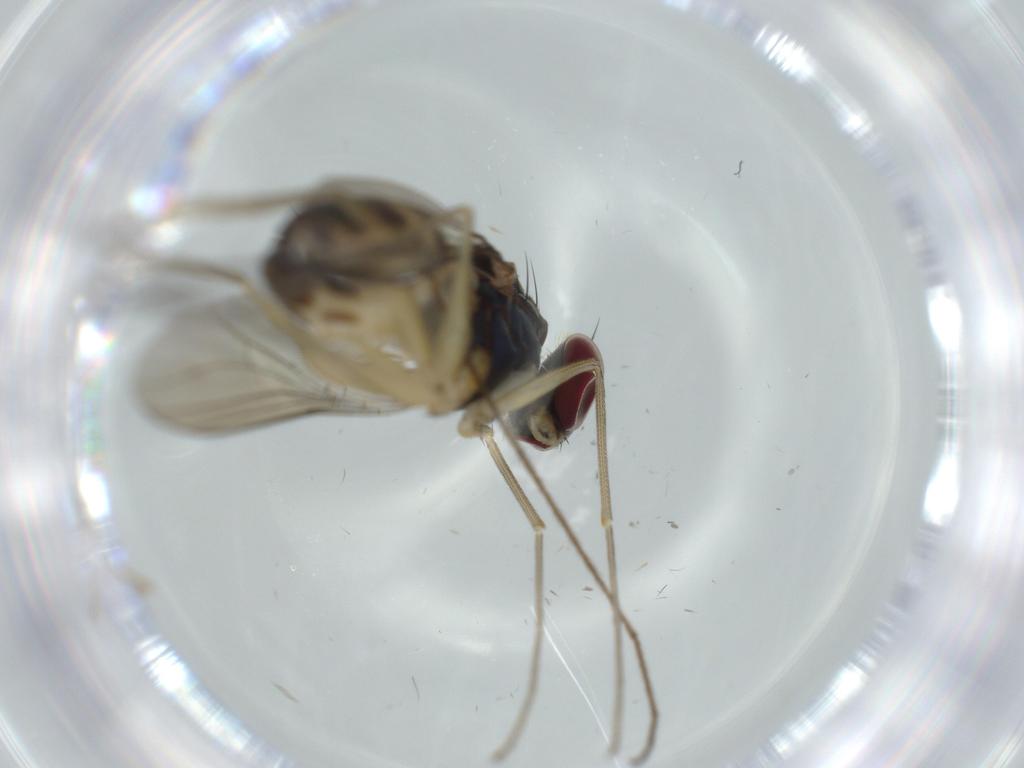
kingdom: Animalia
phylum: Arthropoda
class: Insecta
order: Diptera
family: Dolichopodidae
